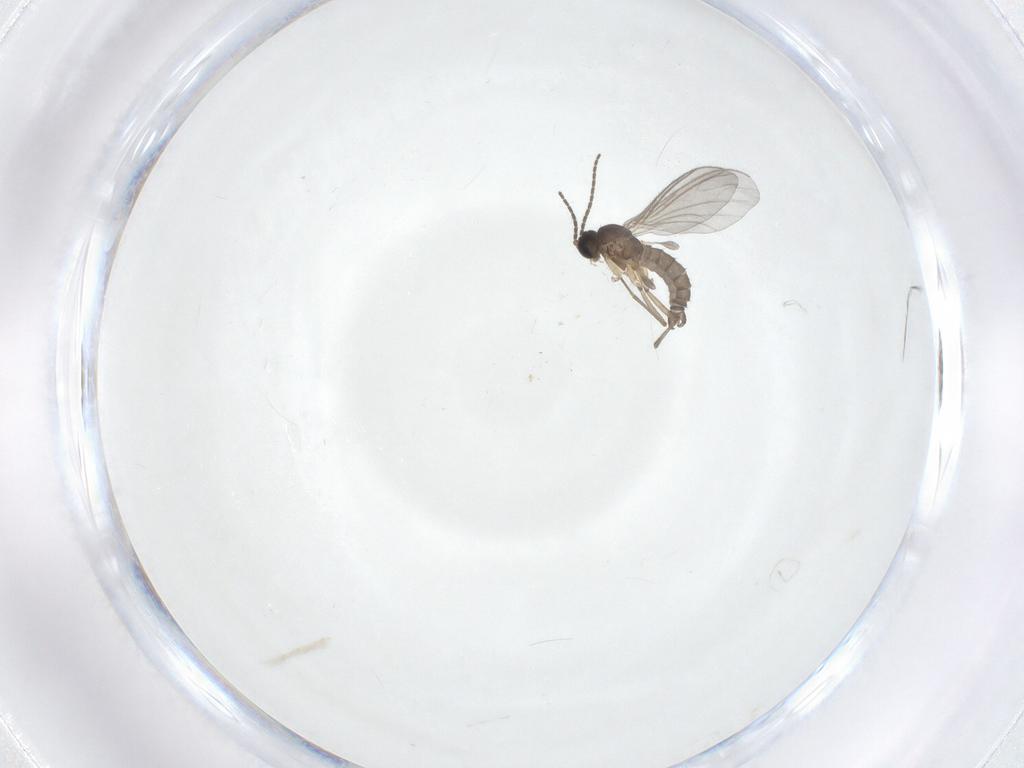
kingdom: Animalia
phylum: Arthropoda
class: Insecta
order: Diptera
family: Sciaridae
